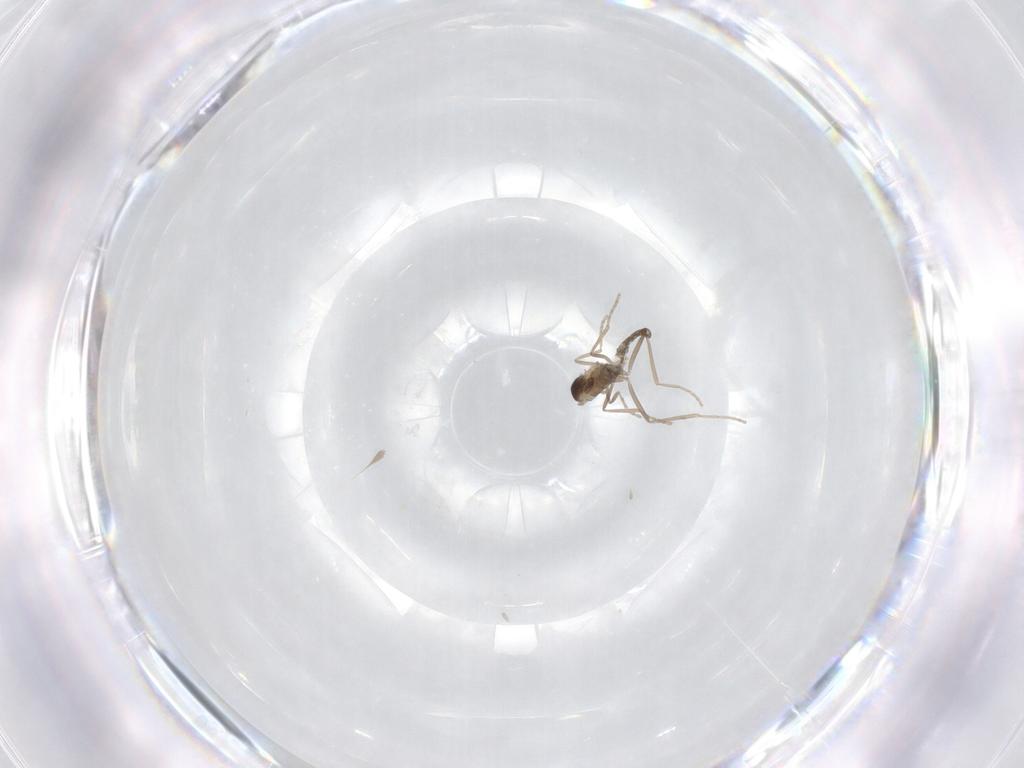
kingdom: Animalia
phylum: Arthropoda
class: Insecta
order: Diptera
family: Cecidomyiidae
